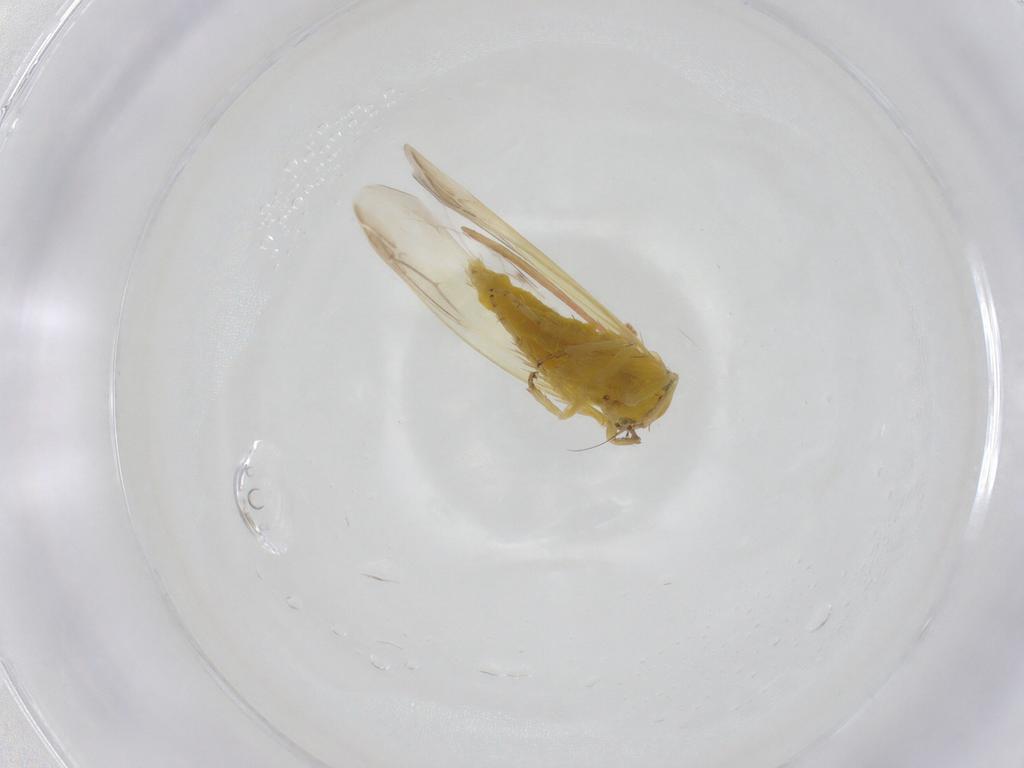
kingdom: Animalia
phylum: Arthropoda
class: Insecta
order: Hemiptera
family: Cicadellidae
